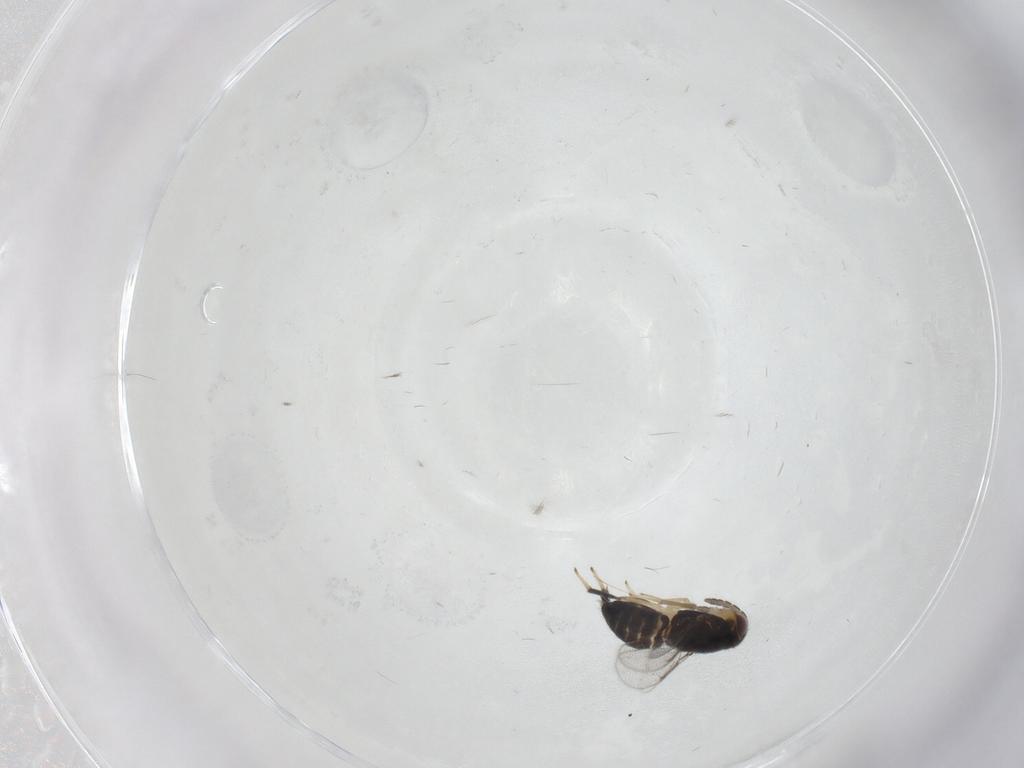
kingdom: Animalia
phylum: Arthropoda
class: Insecta
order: Hymenoptera
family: Aphelinidae
